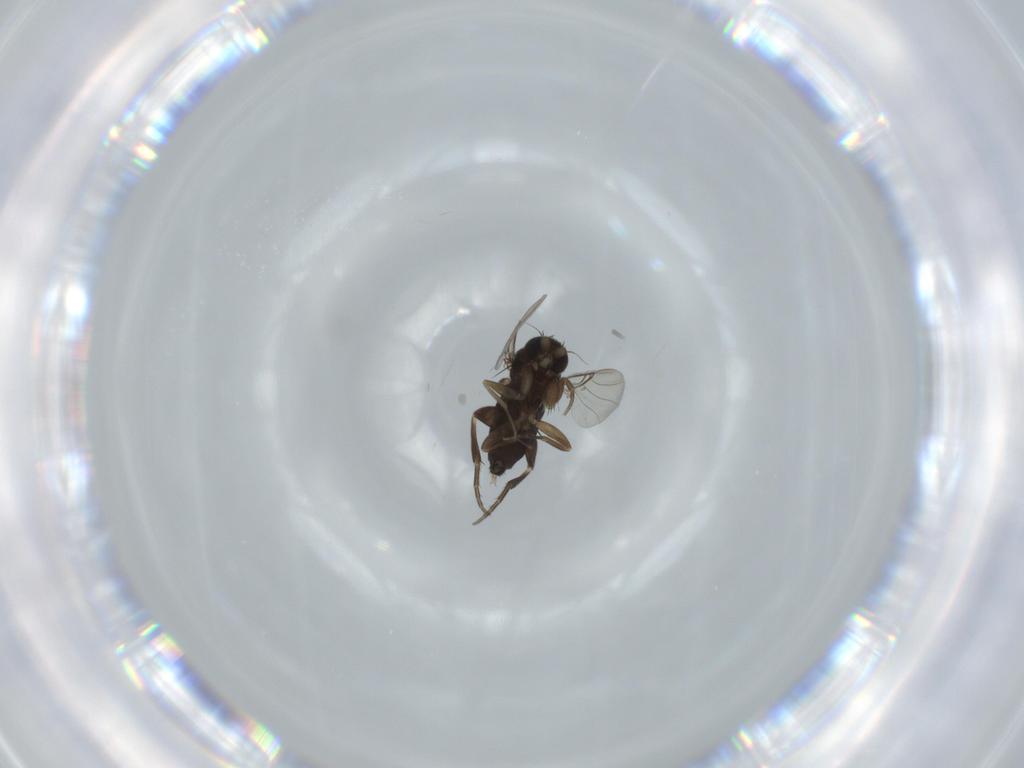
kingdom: Animalia
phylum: Arthropoda
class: Insecta
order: Diptera
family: Phoridae
